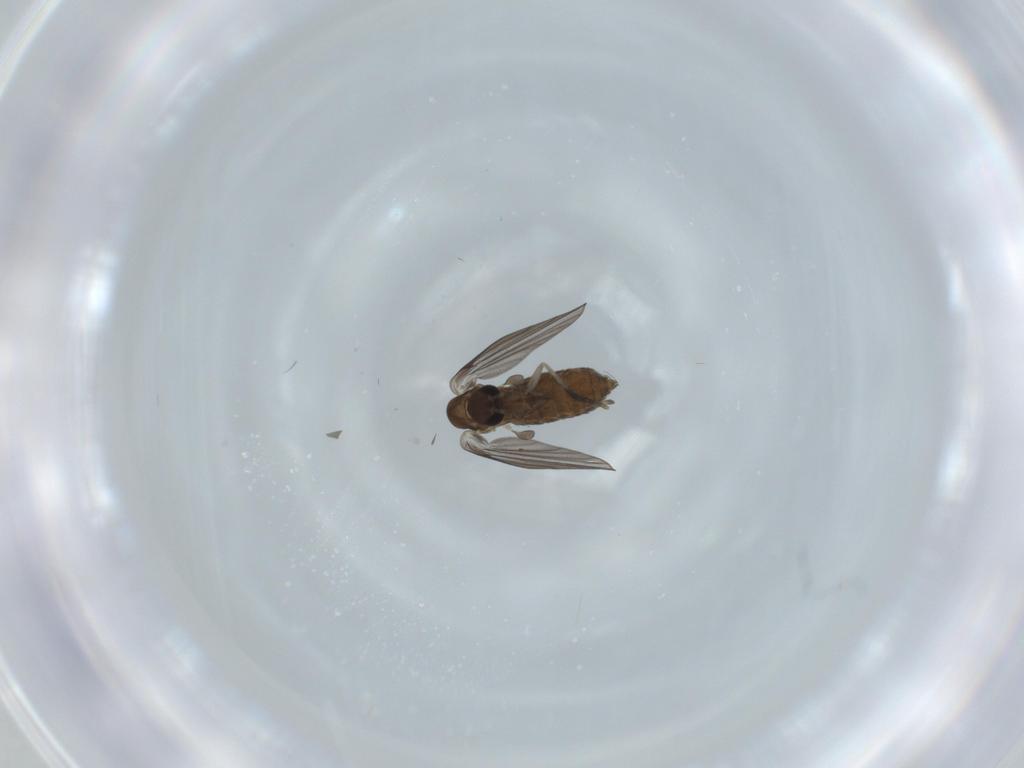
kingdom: Animalia
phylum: Arthropoda
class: Insecta
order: Diptera
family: Psychodidae
